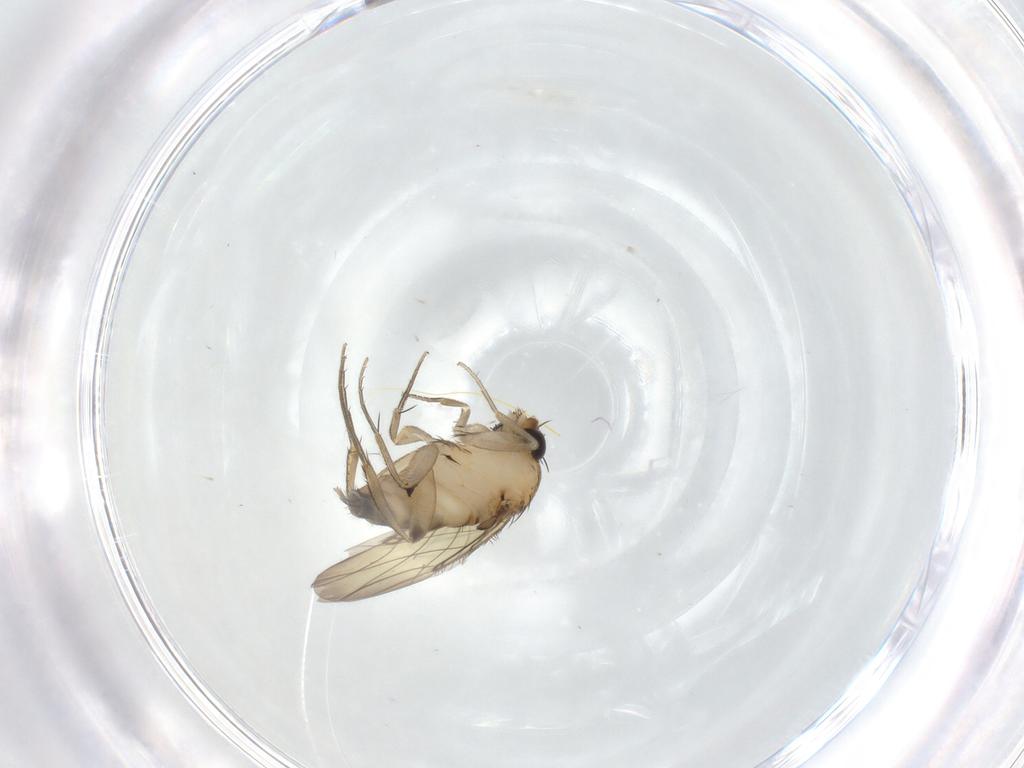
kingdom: Animalia
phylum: Arthropoda
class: Insecta
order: Diptera
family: Phoridae
